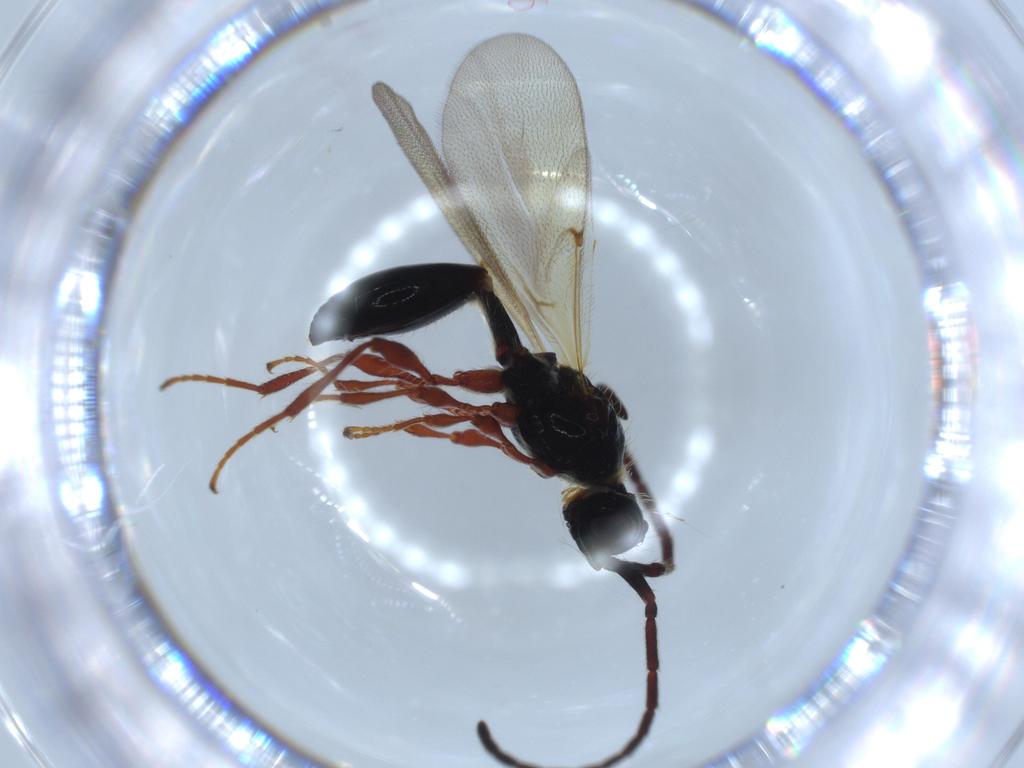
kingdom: Animalia
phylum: Arthropoda
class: Insecta
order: Hymenoptera
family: Diapriidae
